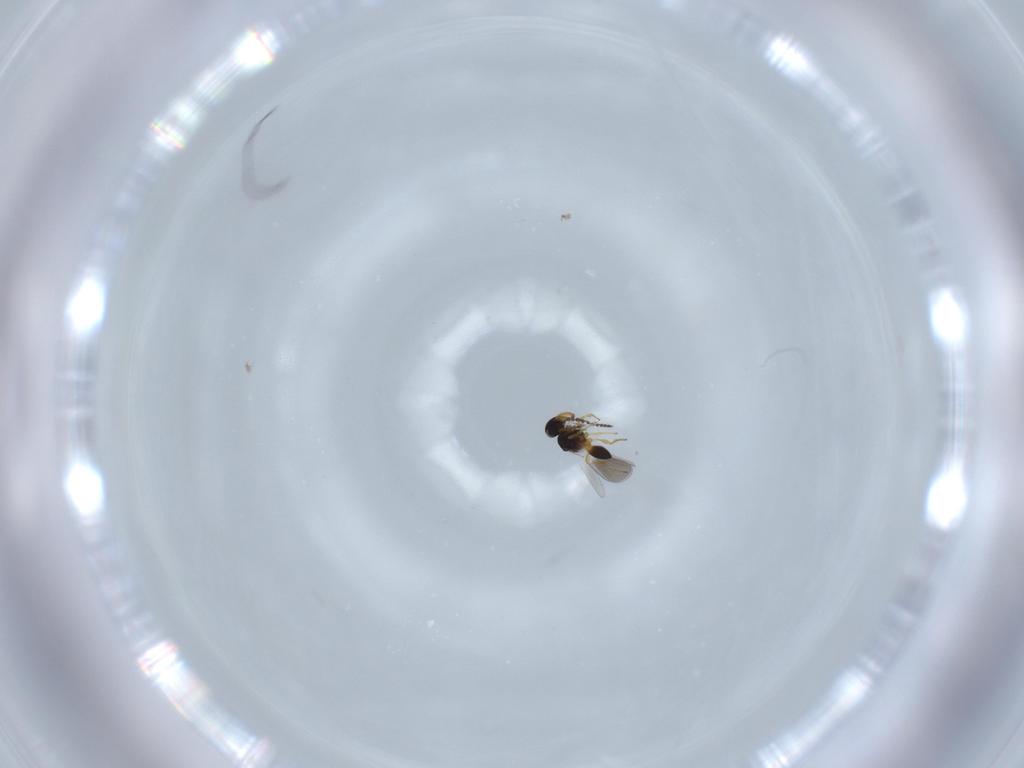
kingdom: Animalia
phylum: Arthropoda
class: Insecta
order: Hymenoptera
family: Platygastridae
